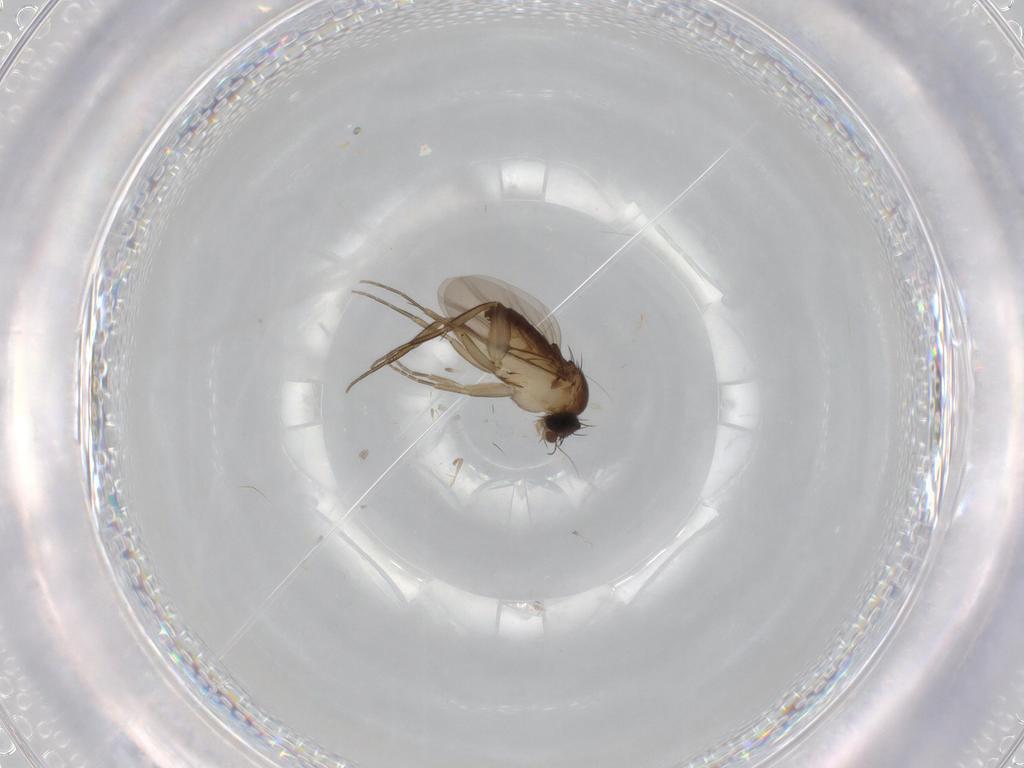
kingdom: Animalia
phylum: Arthropoda
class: Insecta
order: Diptera
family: Phoridae
